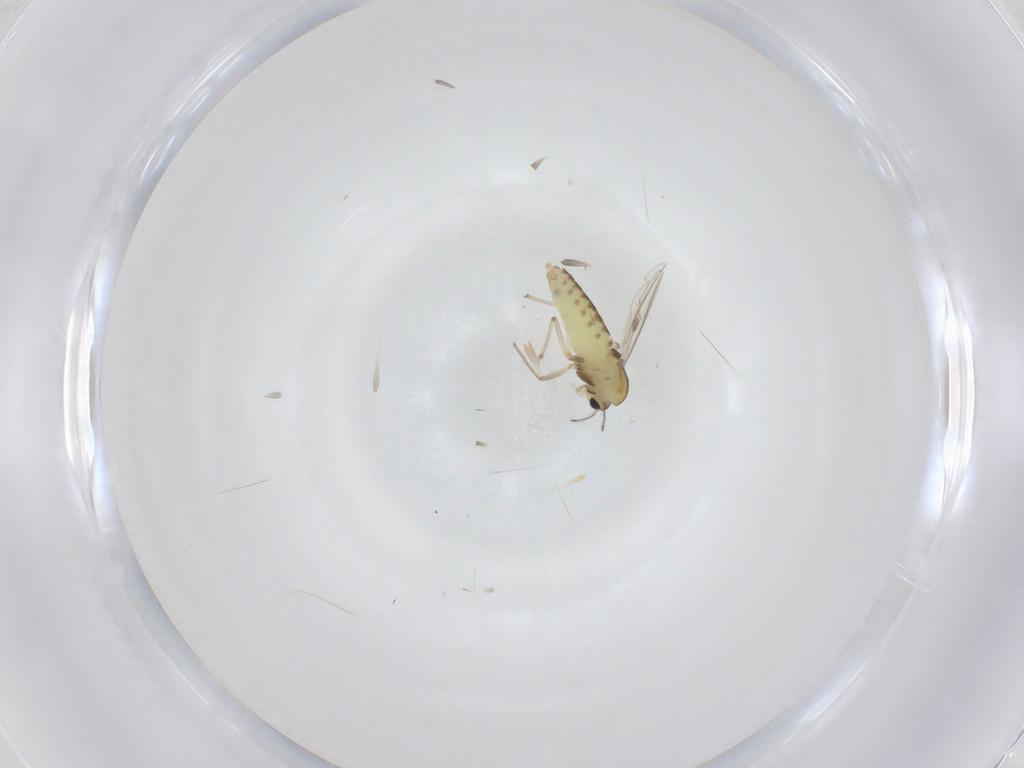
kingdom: Animalia
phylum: Arthropoda
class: Insecta
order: Diptera
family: Chironomidae
